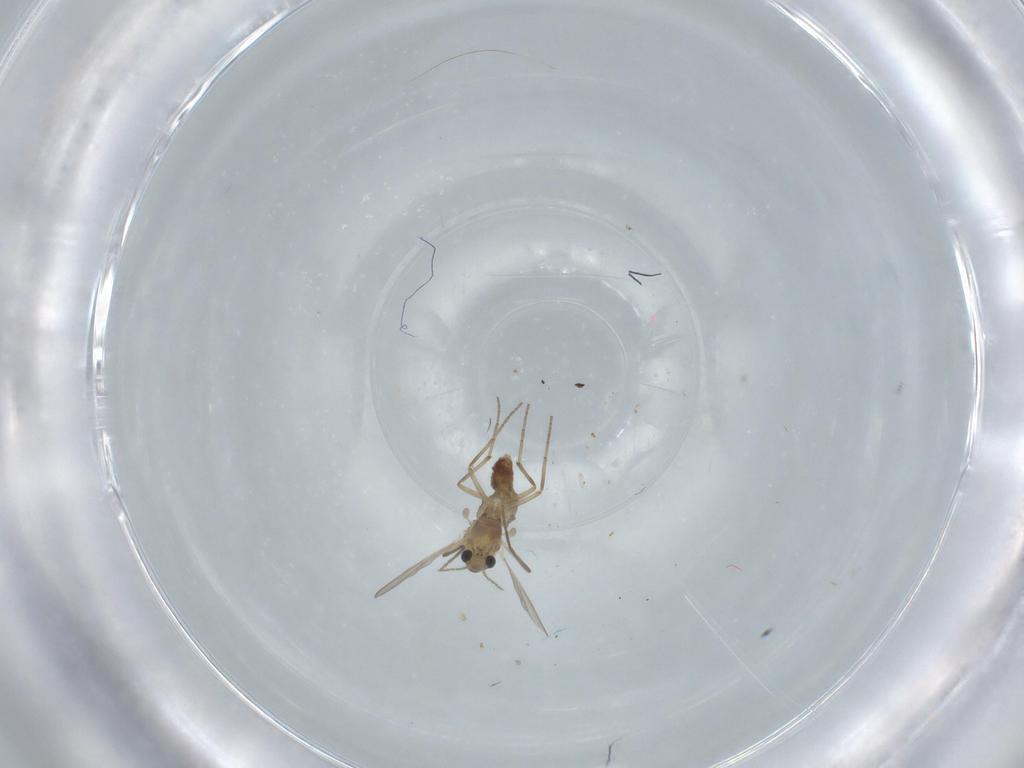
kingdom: Animalia
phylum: Arthropoda
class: Insecta
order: Diptera
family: Chironomidae
